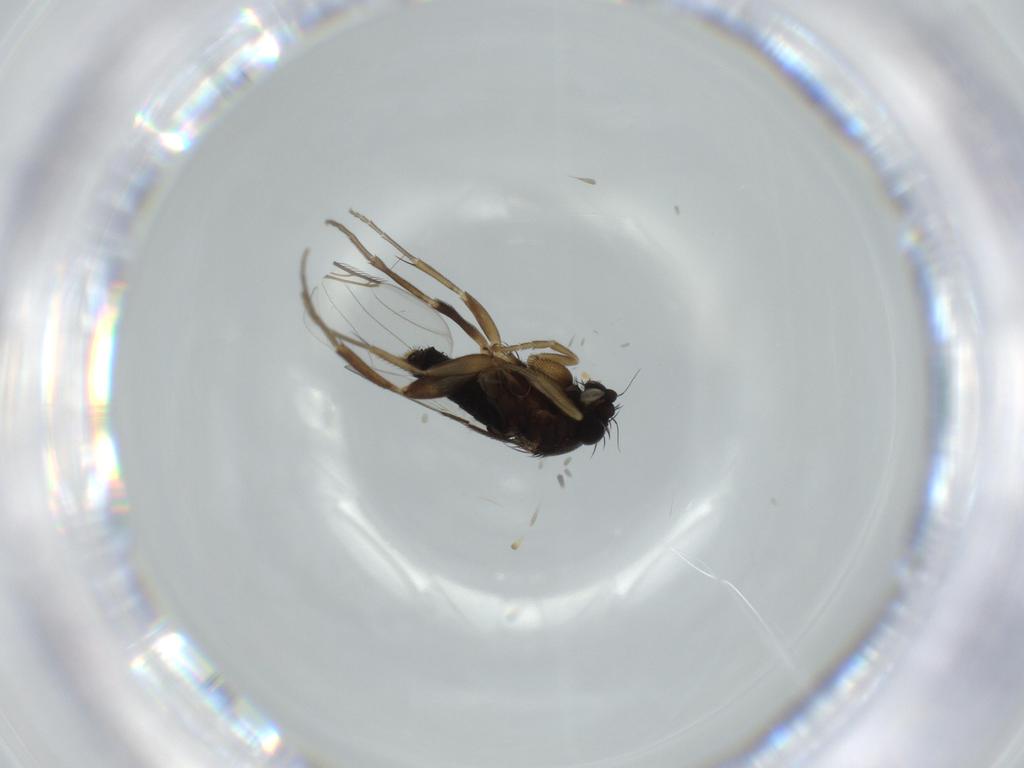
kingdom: Animalia
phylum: Arthropoda
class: Insecta
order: Diptera
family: Phoridae
